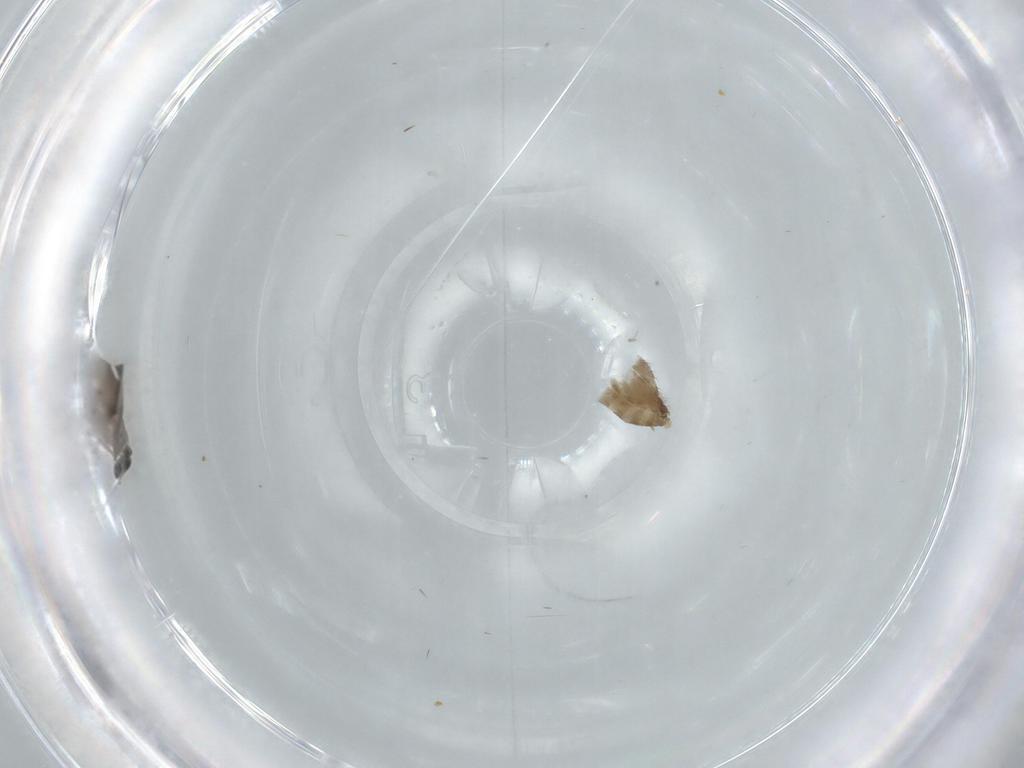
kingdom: Animalia
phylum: Arthropoda
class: Insecta
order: Diptera
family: Chironomidae
